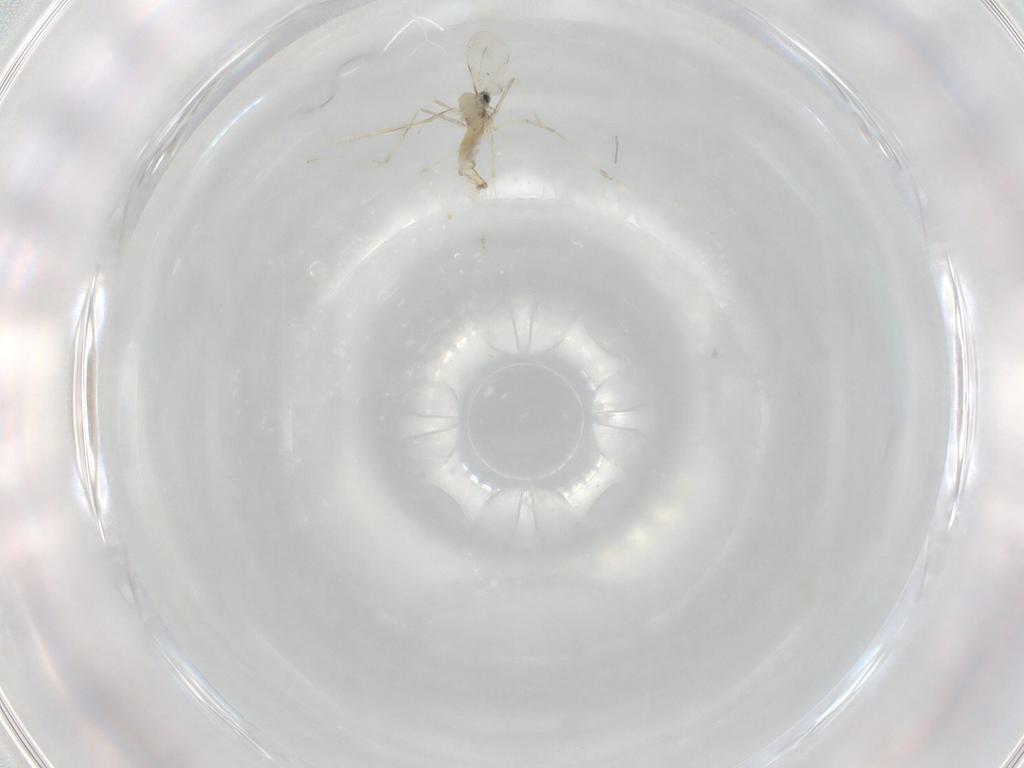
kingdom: Animalia
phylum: Arthropoda
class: Insecta
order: Diptera
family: Cecidomyiidae
